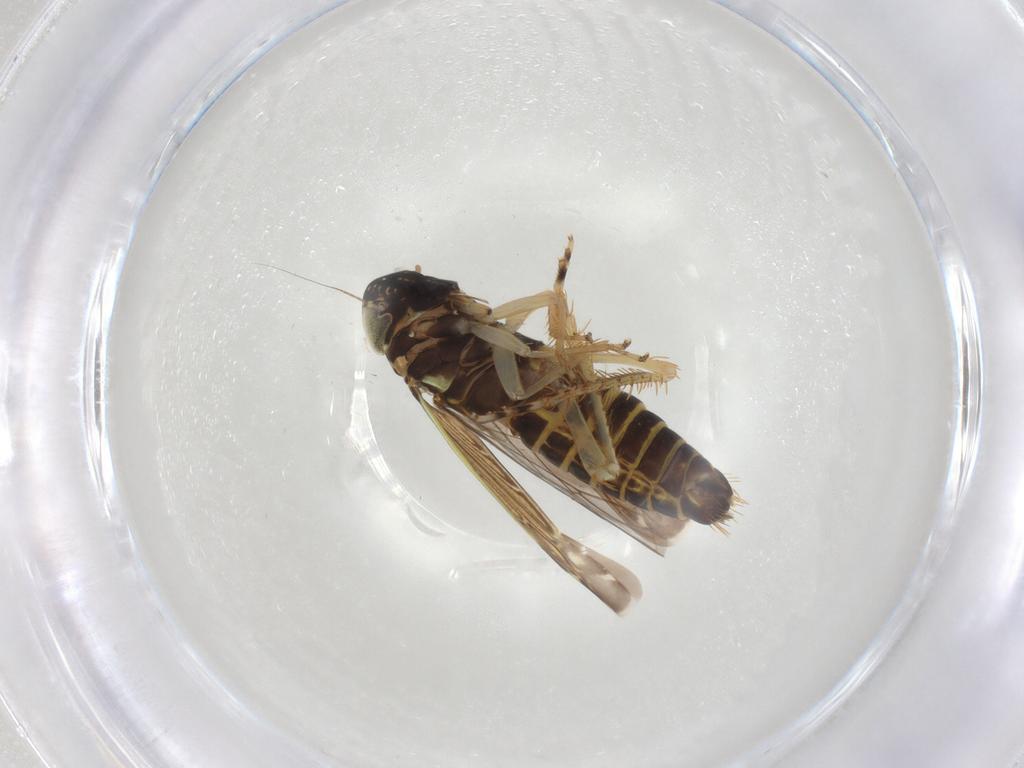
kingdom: Animalia
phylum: Arthropoda
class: Insecta
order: Hemiptera
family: Cicadellidae
